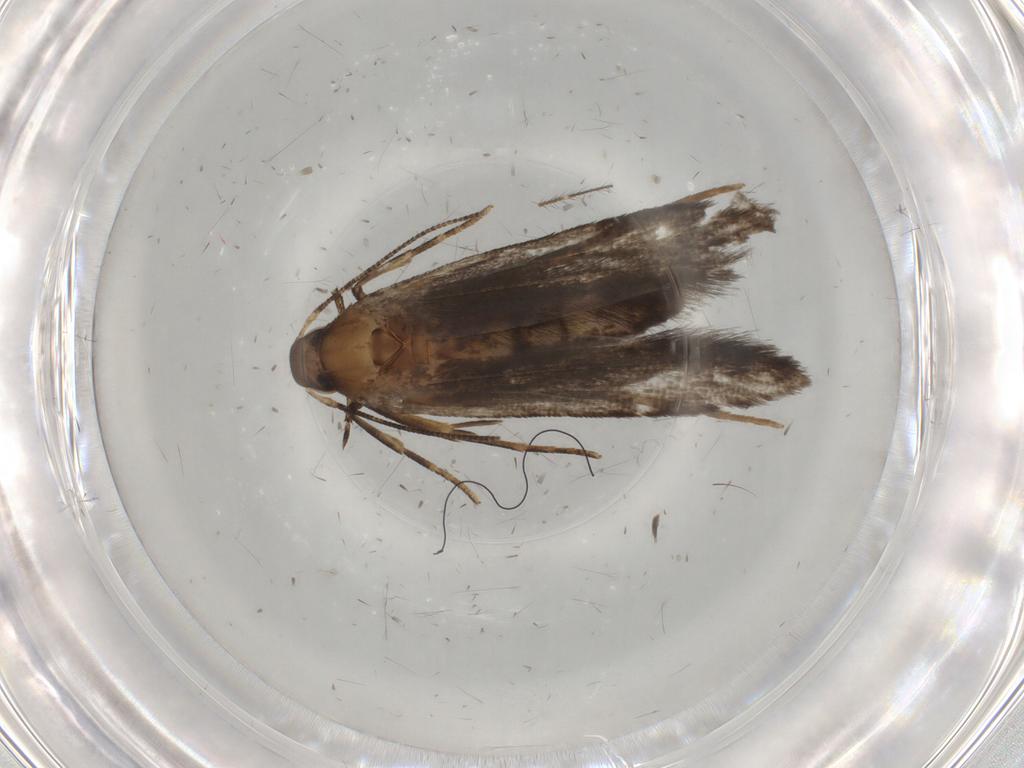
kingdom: Animalia
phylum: Arthropoda
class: Insecta
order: Lepidoptera
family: Gelechiidae
